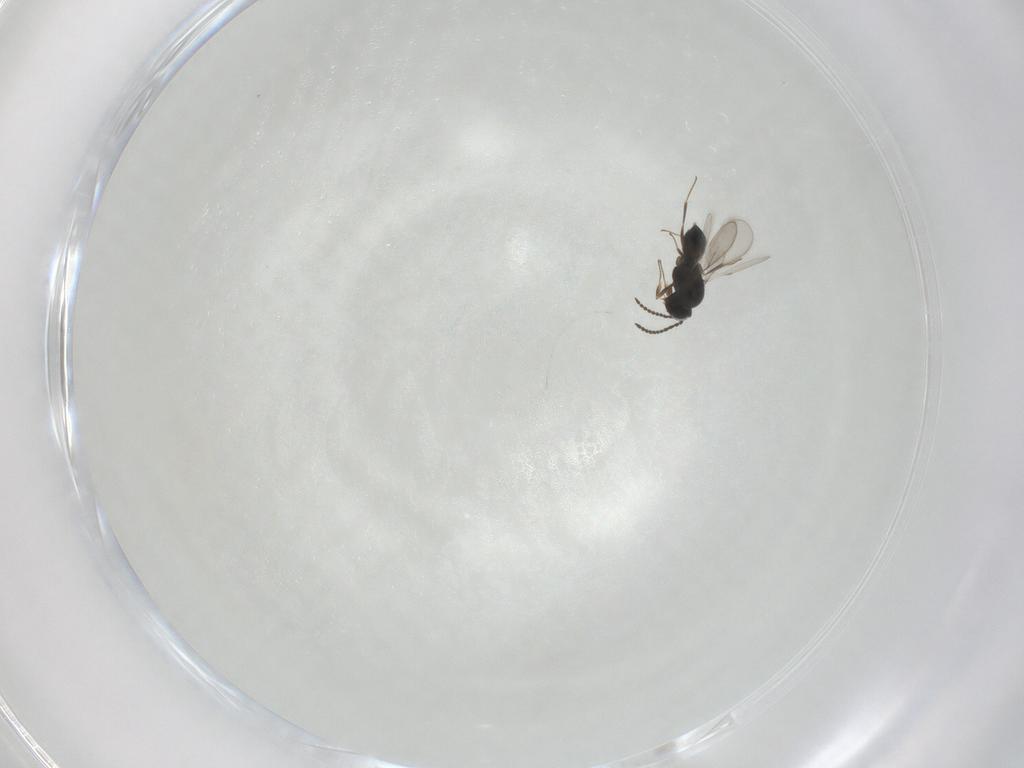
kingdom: Animalia
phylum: Arthropoda
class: Insecta
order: Hymenoptera
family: Scelionidae
